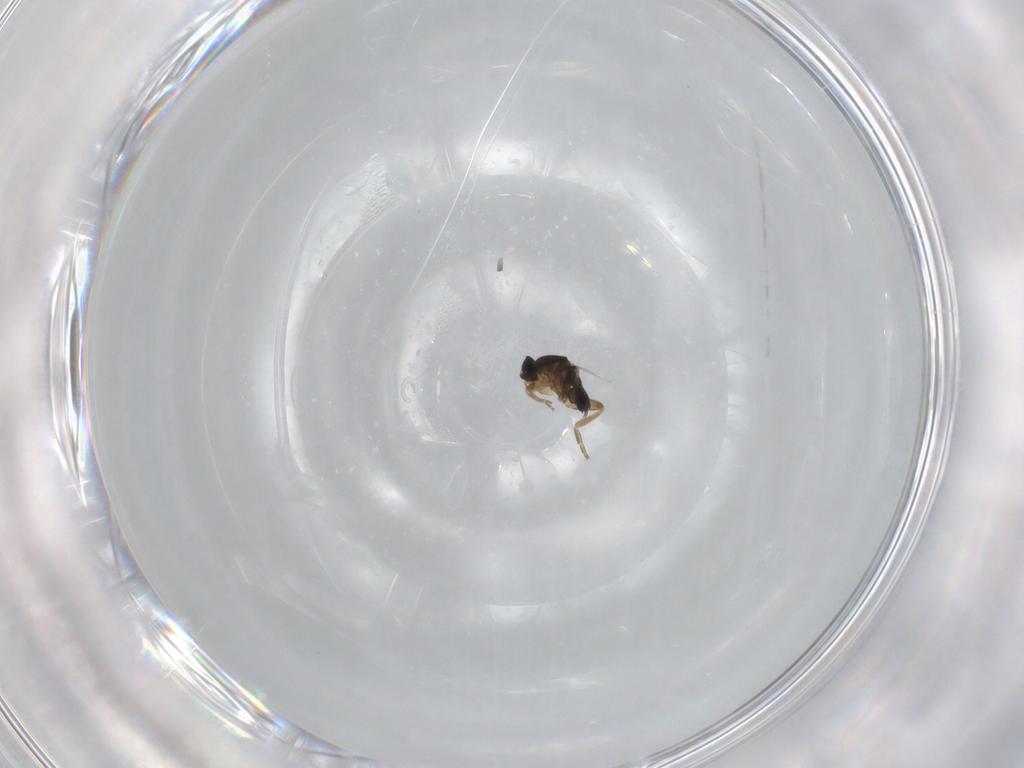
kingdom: Animalia
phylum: Arthropoda
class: Insecta
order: Diptera
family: Phoridae
